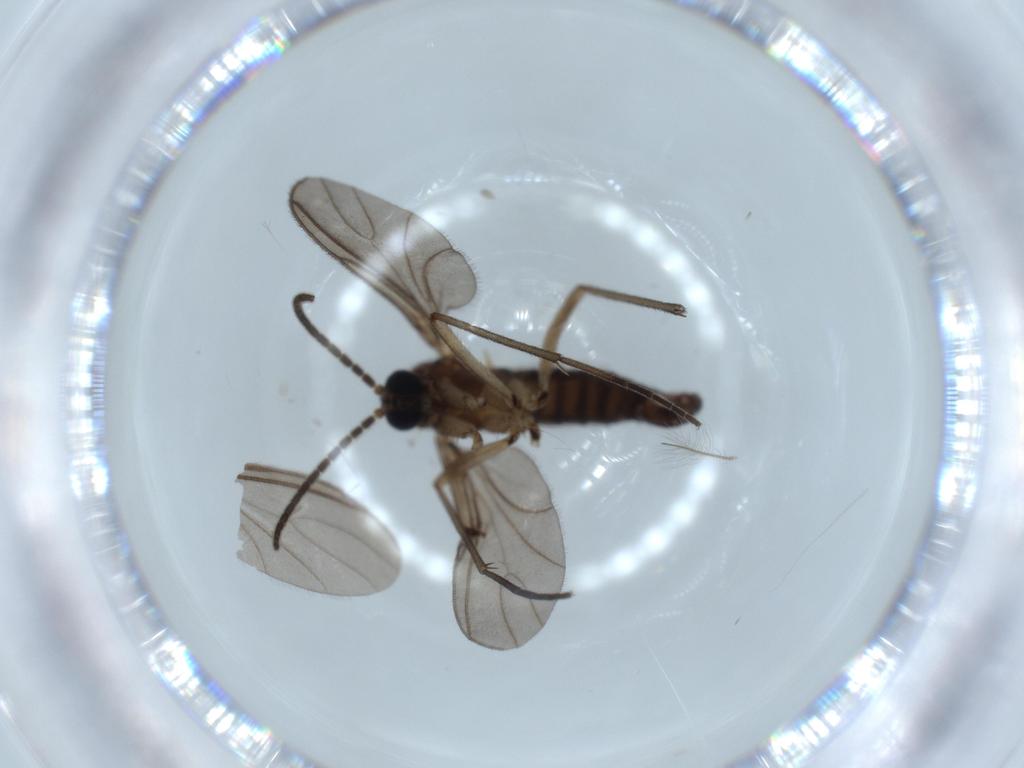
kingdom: Animalia
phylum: Arthropoda
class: Insecta
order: Diptera
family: Sciaridae
